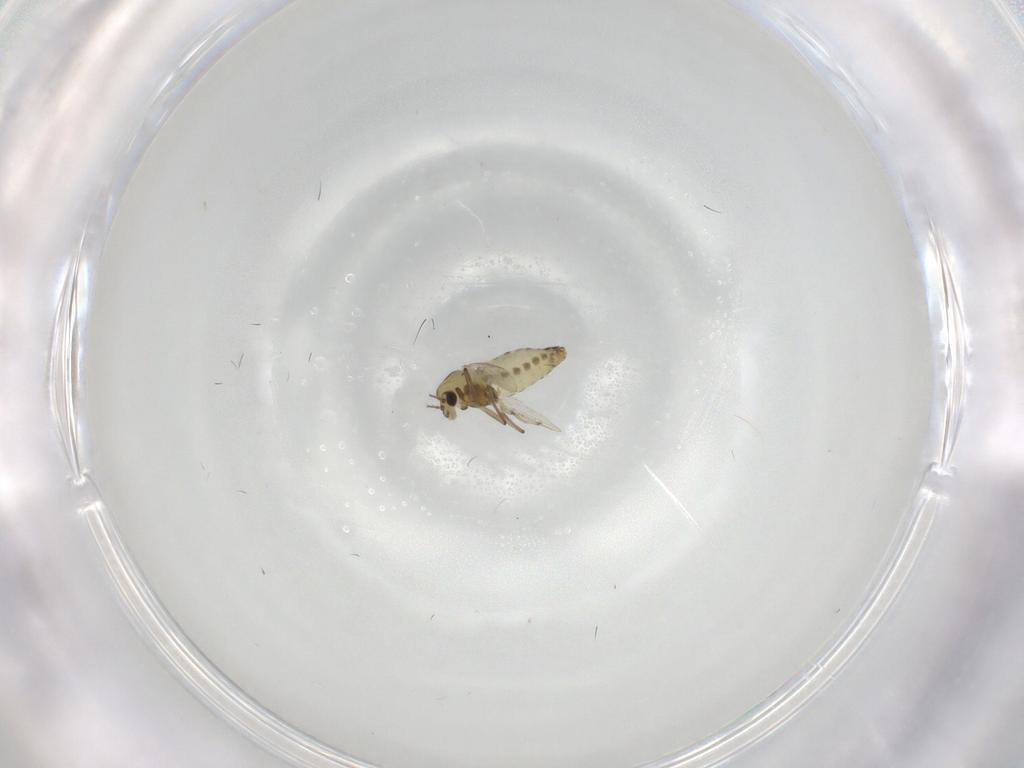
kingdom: Animalia
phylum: Arthropoda
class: Insecta
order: Diptera
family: Chironomidae
